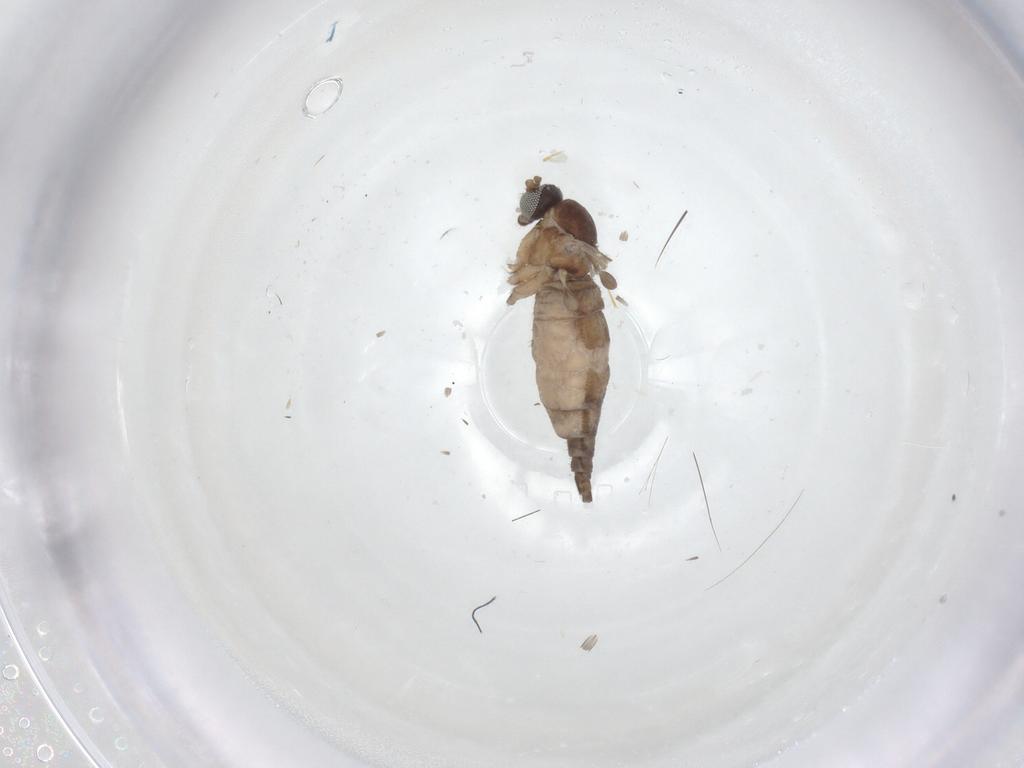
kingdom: Animalia
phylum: Arthropoda
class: Insecta
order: Diptera
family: Sciaridae
